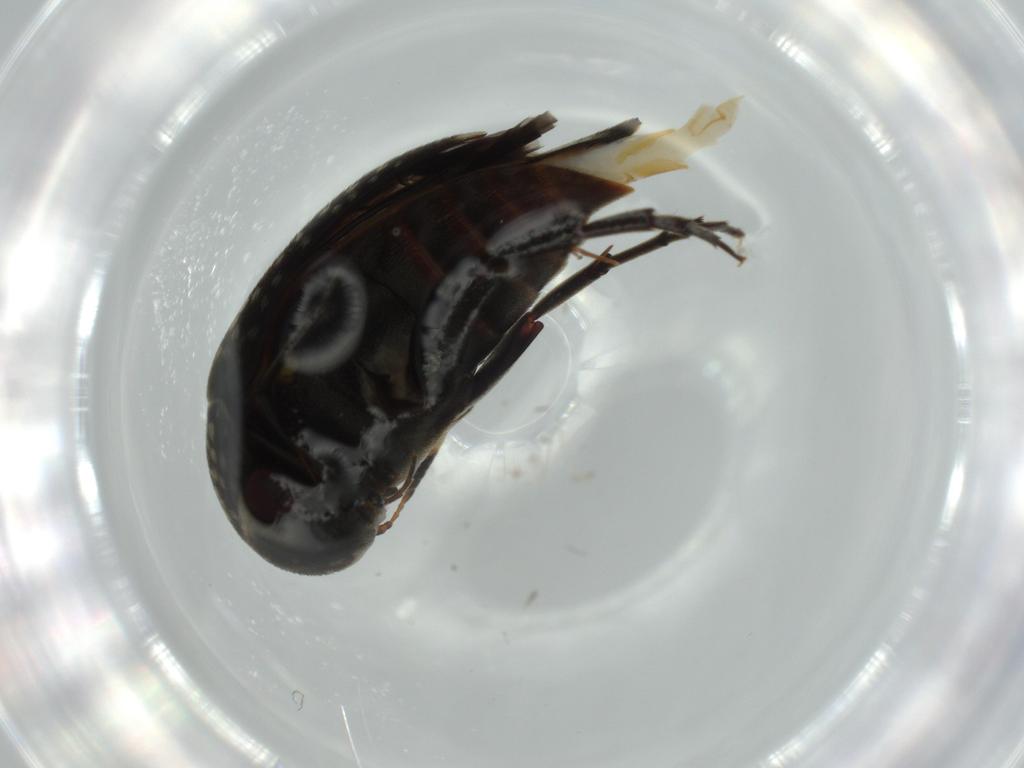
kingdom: Animalia
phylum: Arthropoda
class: Insecta
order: Coleoptera
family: Mordellidae
